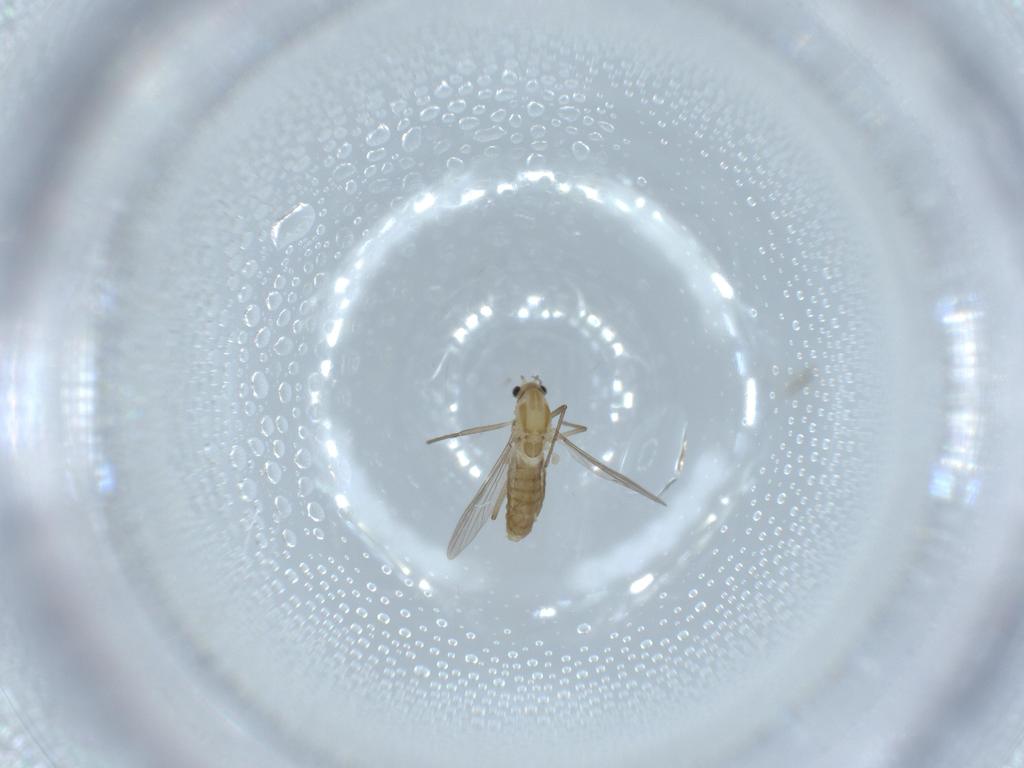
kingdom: Animalia
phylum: Arthropoda
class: Insecta
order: Diptera
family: Chironomidae
